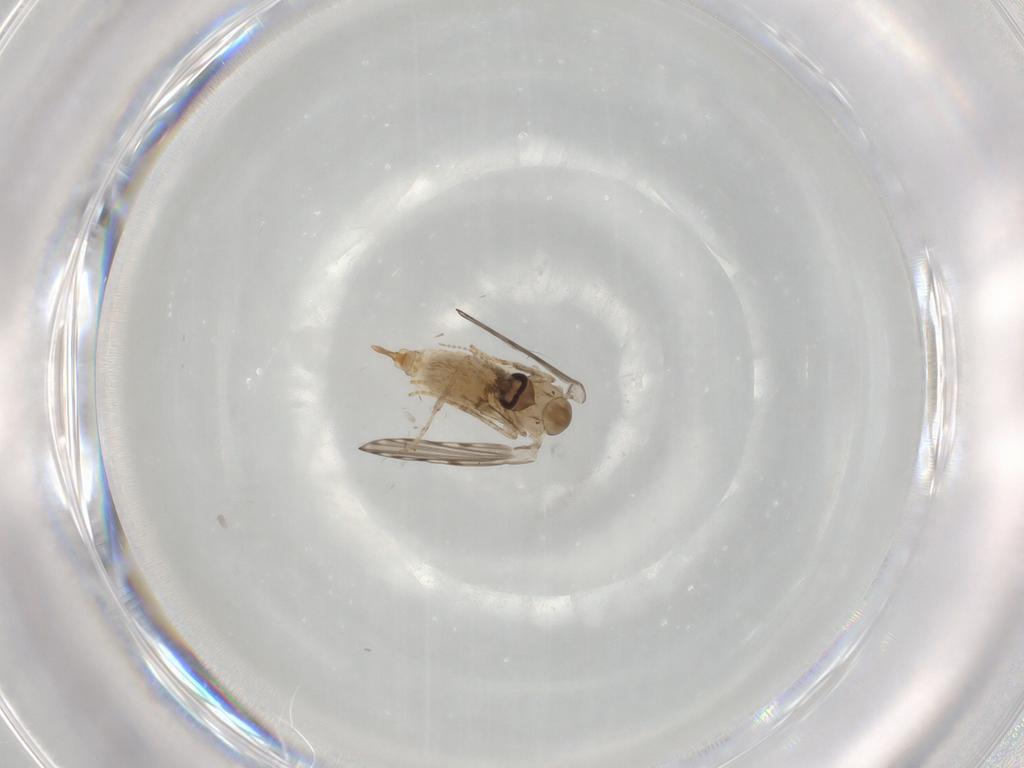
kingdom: Animalia
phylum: Arthropoda
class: Insecta
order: Diptera
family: Psychodidae
